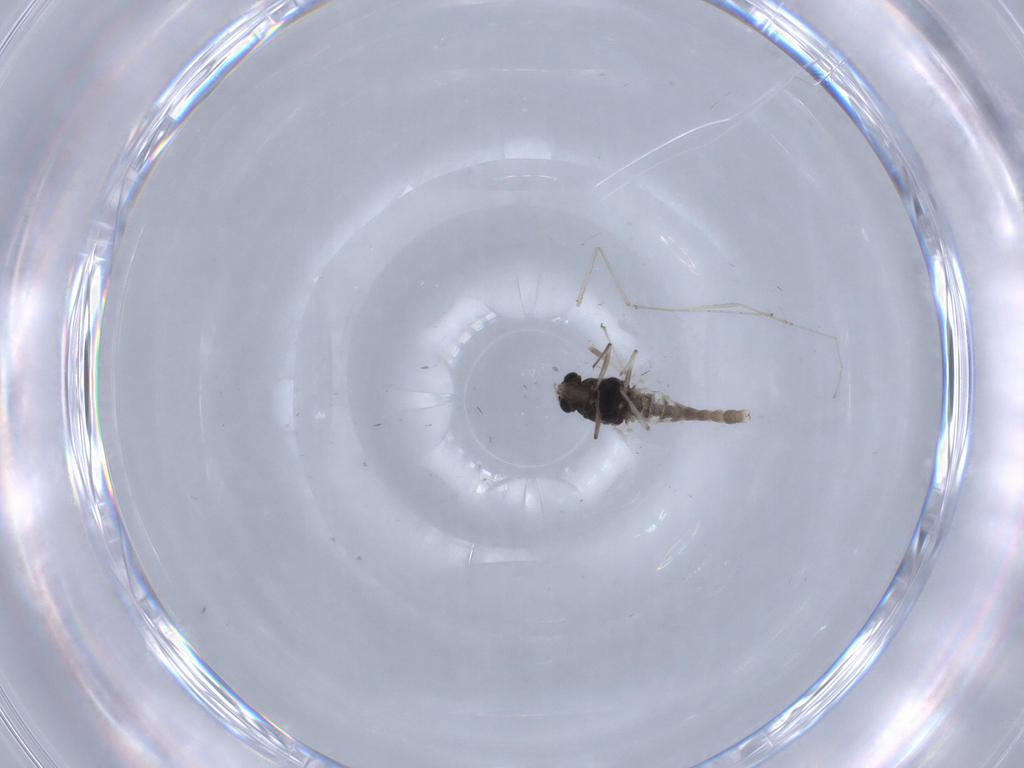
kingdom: Animalia
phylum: Arthropoda
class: Insecta
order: Diptera
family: Chironomidae
